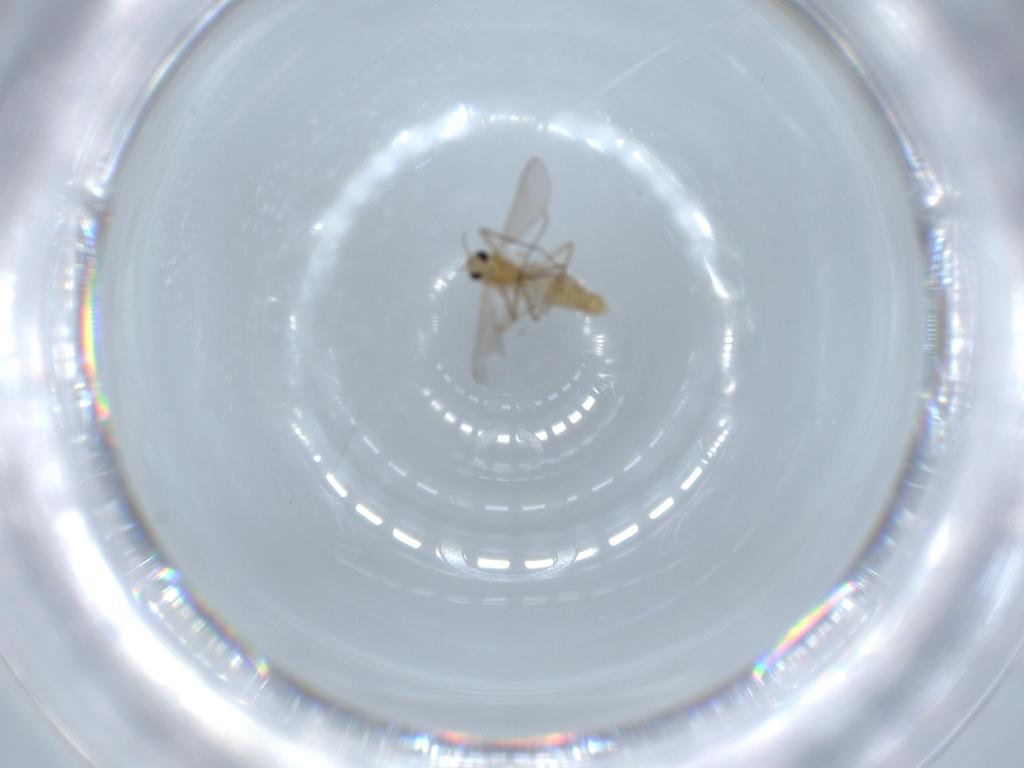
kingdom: Animalia
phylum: Arthropoda
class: Insecta
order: Diptera
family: Chironomidae
